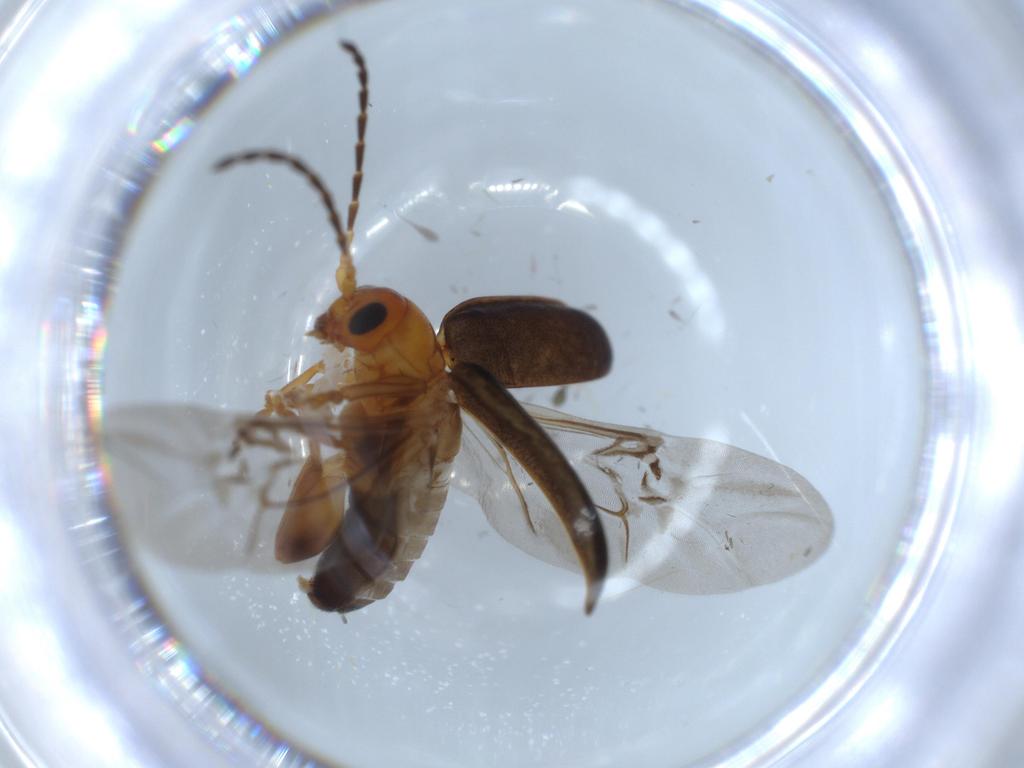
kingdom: Animalia
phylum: Arthropoda
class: Insecta
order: Coleoptera
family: Chrysomelidae
